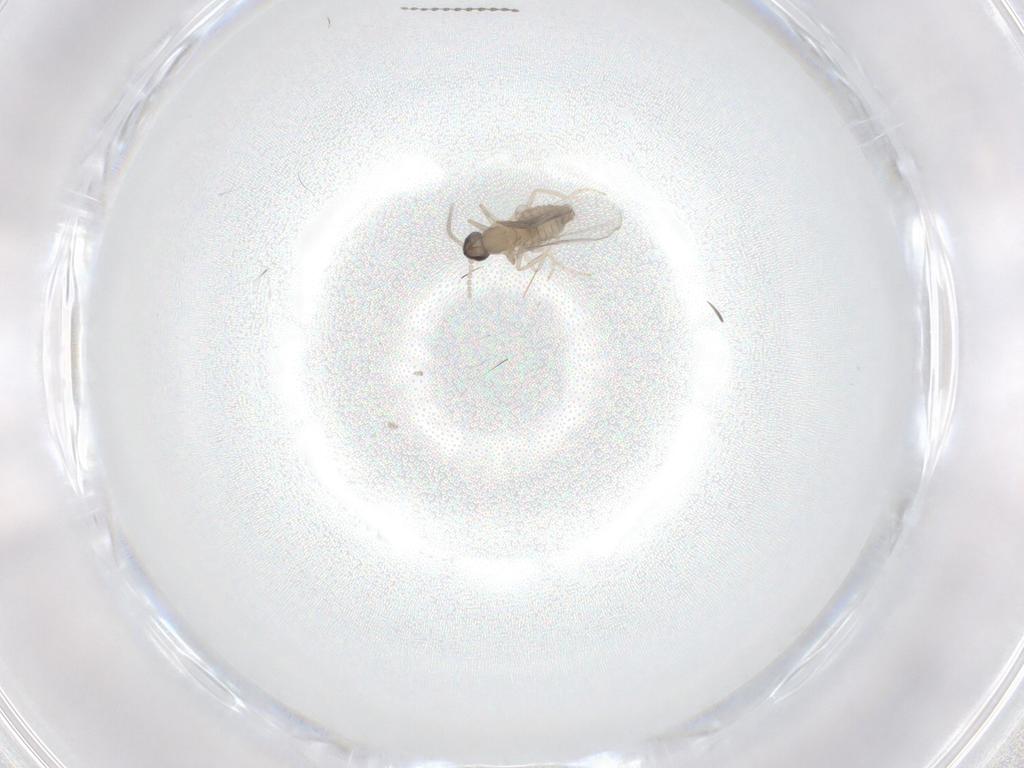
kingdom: Animalia
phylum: Arthropoda
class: Insecta
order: Diptera
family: Cecidomyiidae
